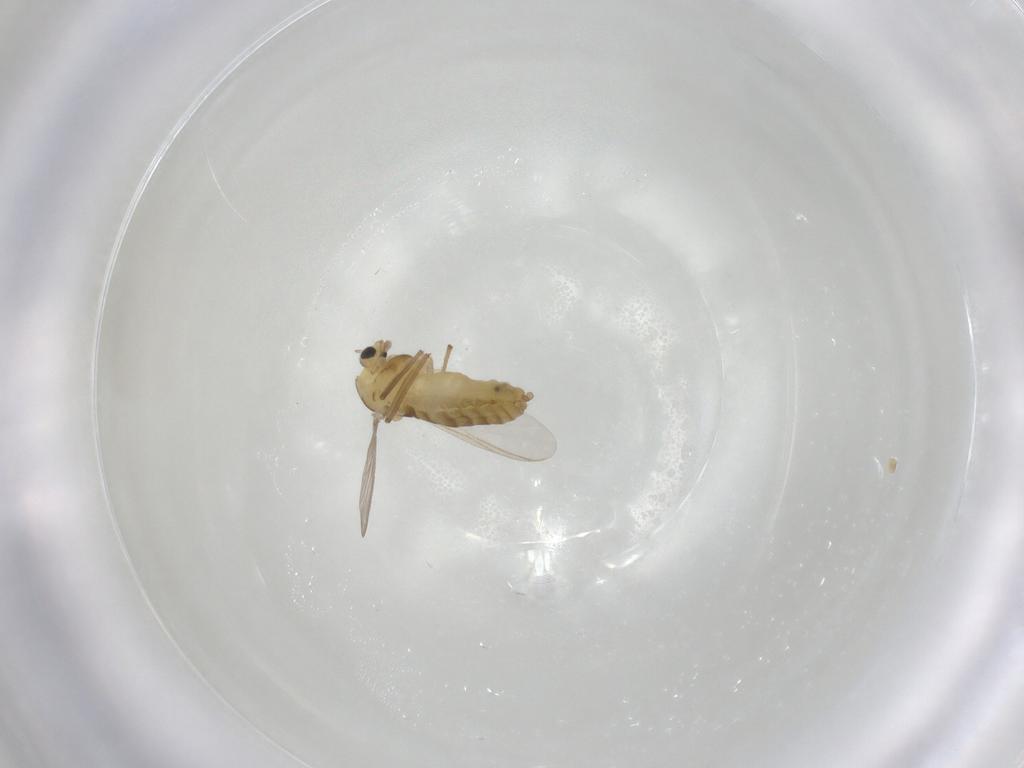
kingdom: Animalia
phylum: Arthropoda
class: Insecta
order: Diptera
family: Chironomidae
